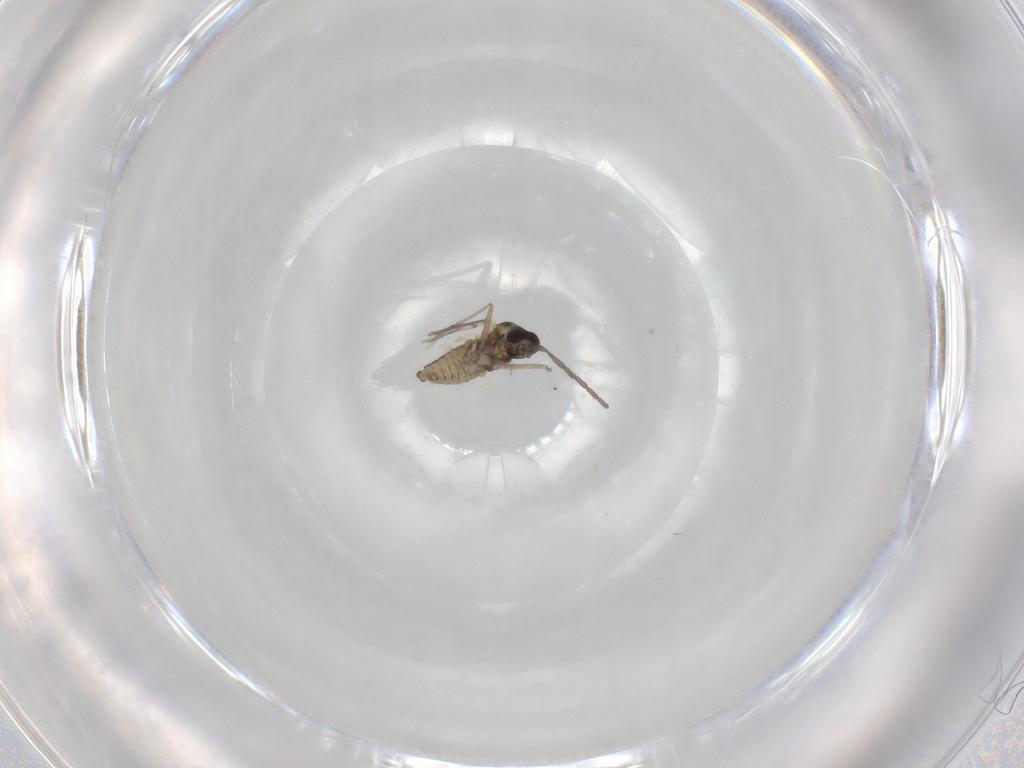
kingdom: Animalia
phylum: Arthropoda
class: Insecta
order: Diptera
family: Cecidomyiidae
